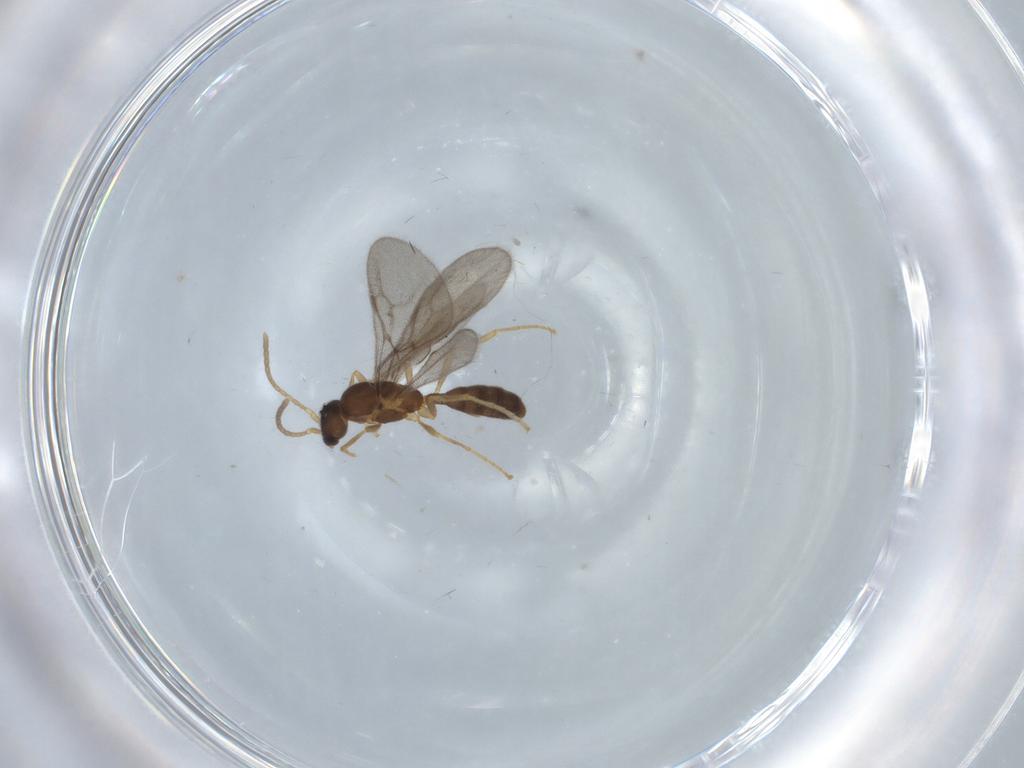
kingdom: Animalia
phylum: Arthropoda
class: Insecta
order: Hymenoptera
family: Formicidae
